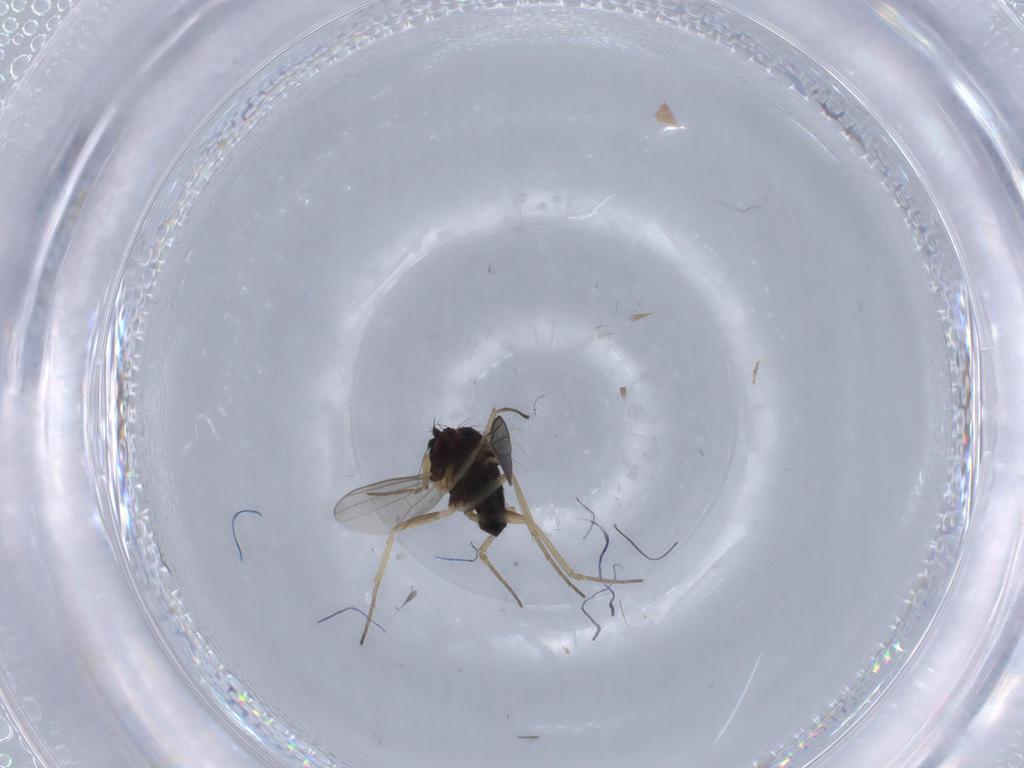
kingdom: Animalia
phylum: Arthropoda
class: Insecta
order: Diptera
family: Dolichopodidae
